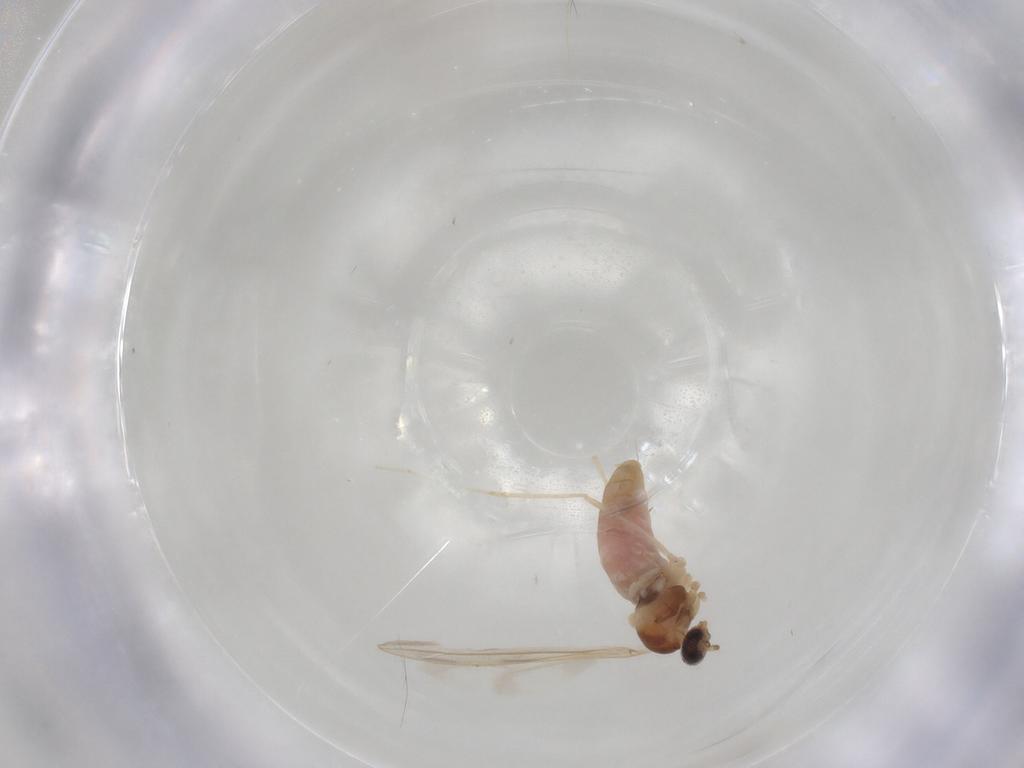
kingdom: Animalia
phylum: Arthropoda
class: Insecta
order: Diptera
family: Cecidomyiidae
